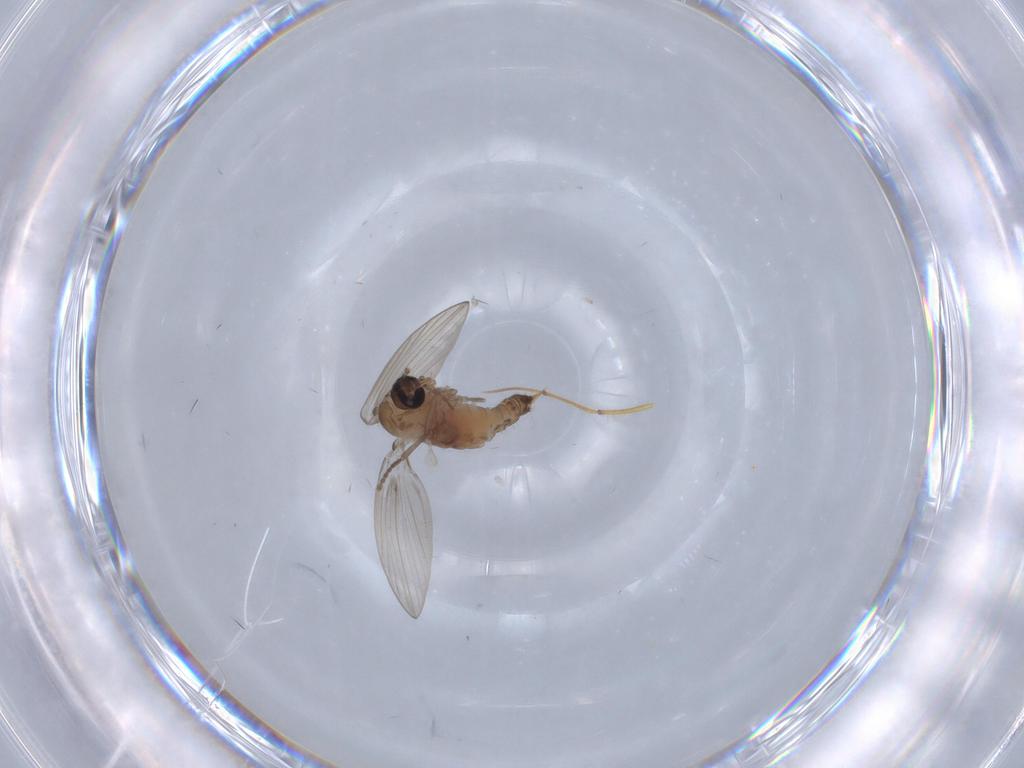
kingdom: Animalia
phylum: Arthropoda
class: Insecta
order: Diptera
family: Psychodidae
